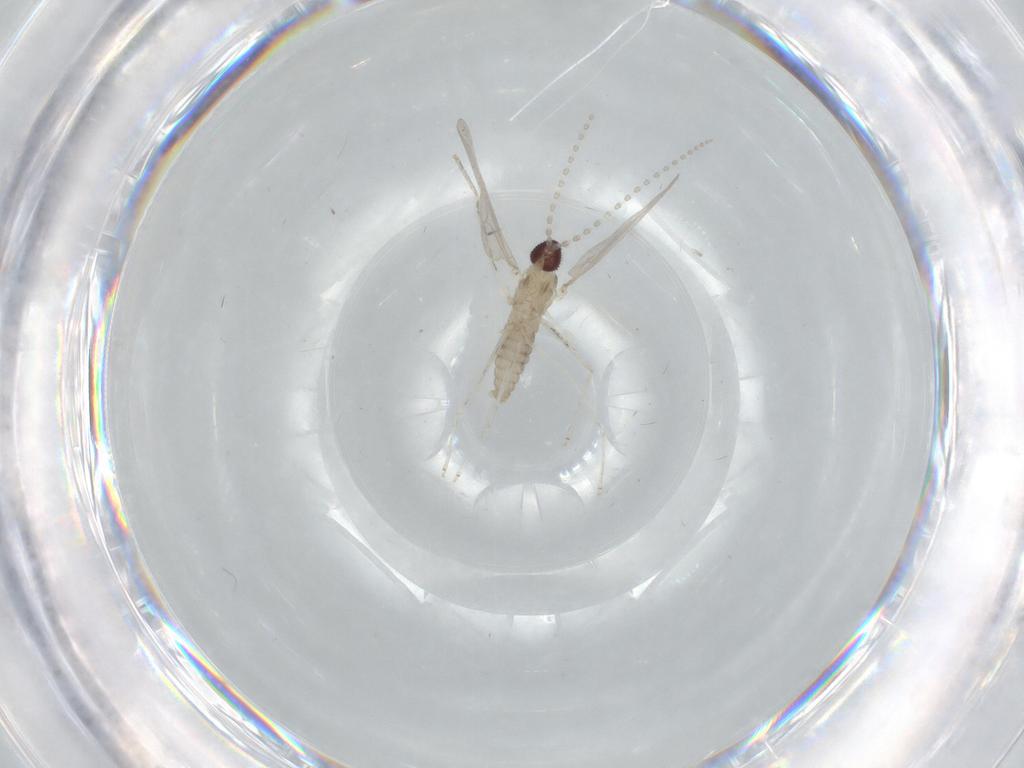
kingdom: Animalia
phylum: Arthropoda
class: Insecta
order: Diptera
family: Cecidomyiidae
